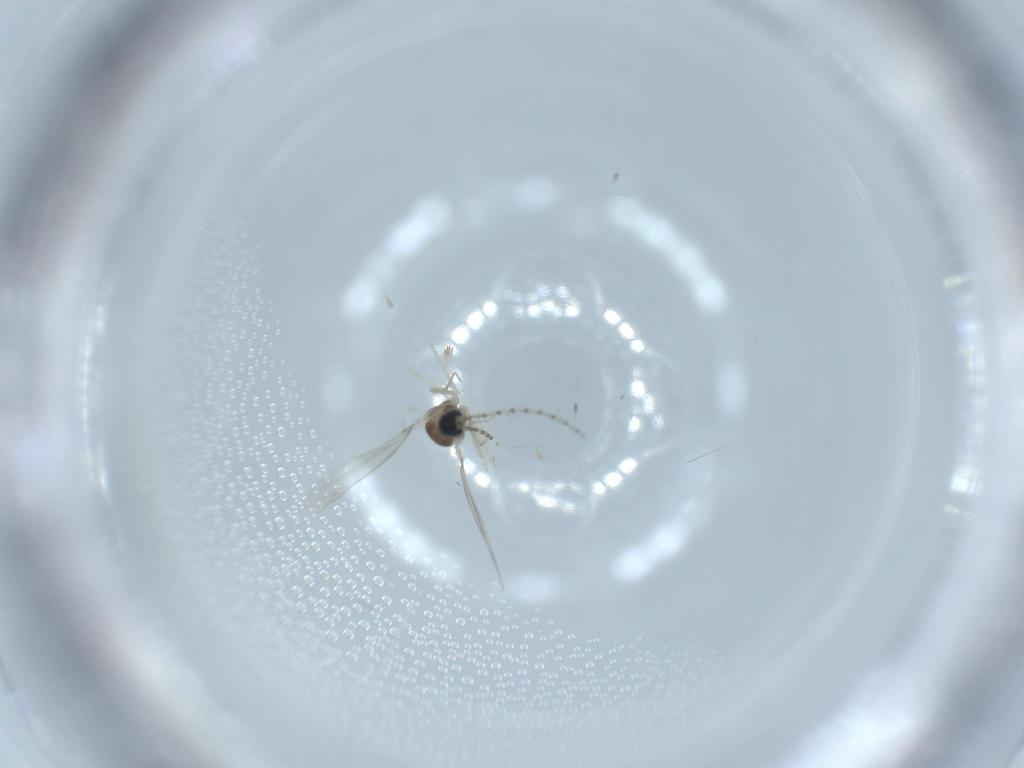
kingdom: Animalia
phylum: Arthropoda
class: Insecta
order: Diptera
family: Cecidomyiidae
